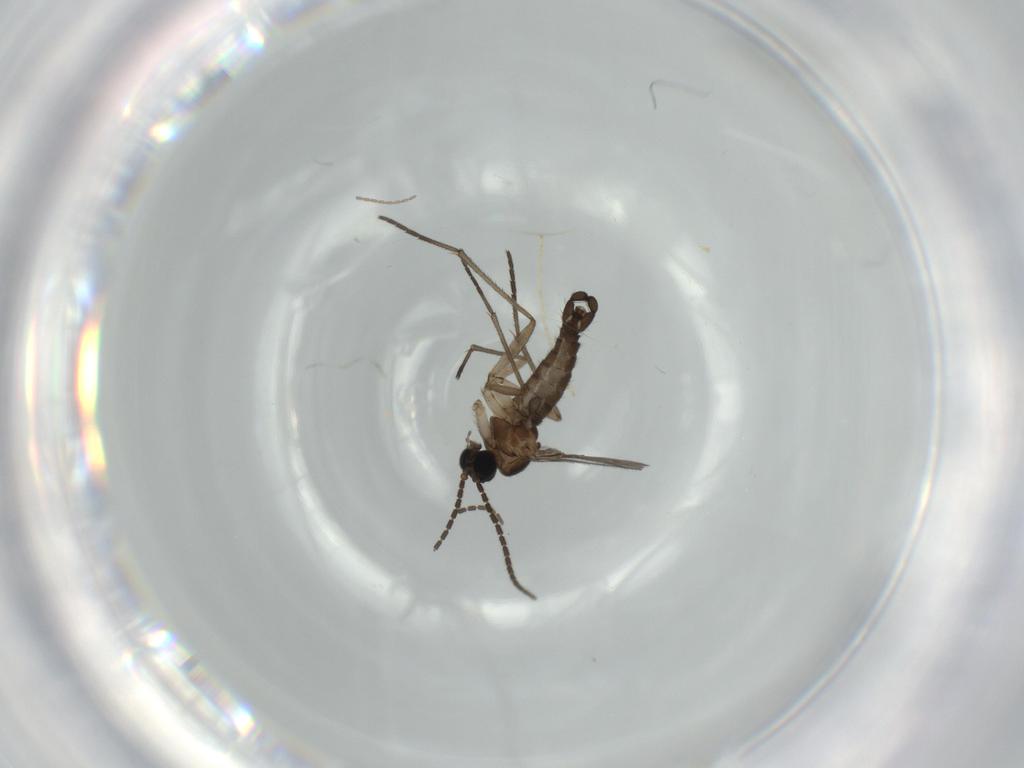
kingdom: Animalia
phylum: Arthropoda
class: Insecta
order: Diptera
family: Sciaridae
